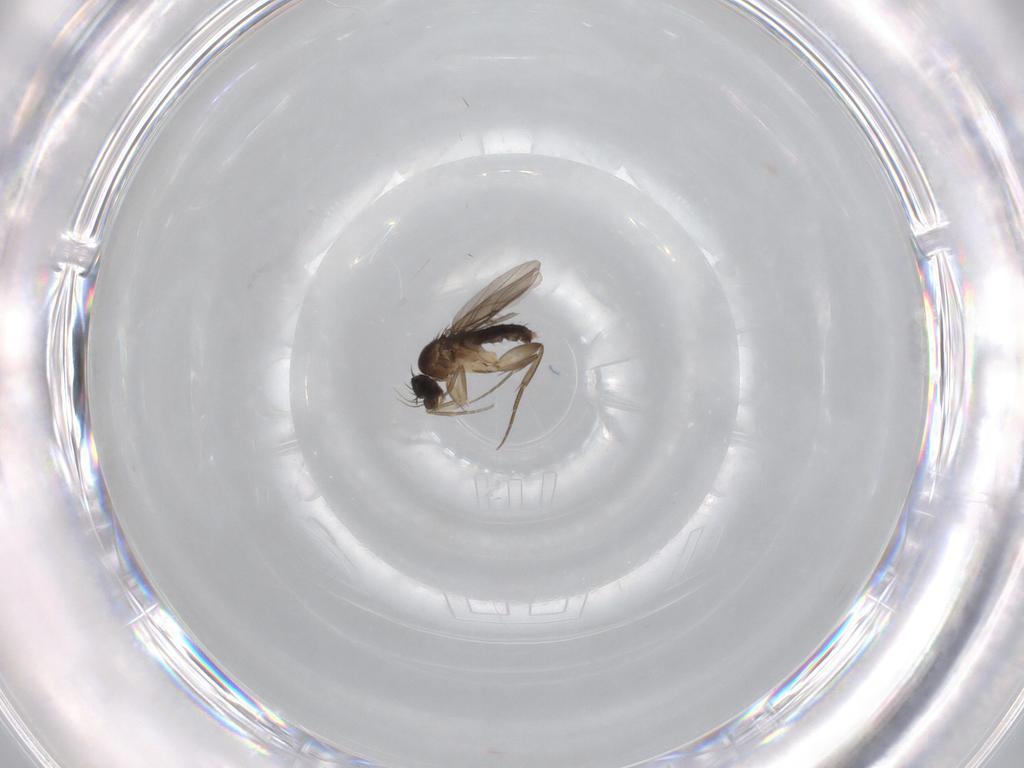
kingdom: Animalia
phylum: Arthropoda
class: Insecta
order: Diptera
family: Phoridae
